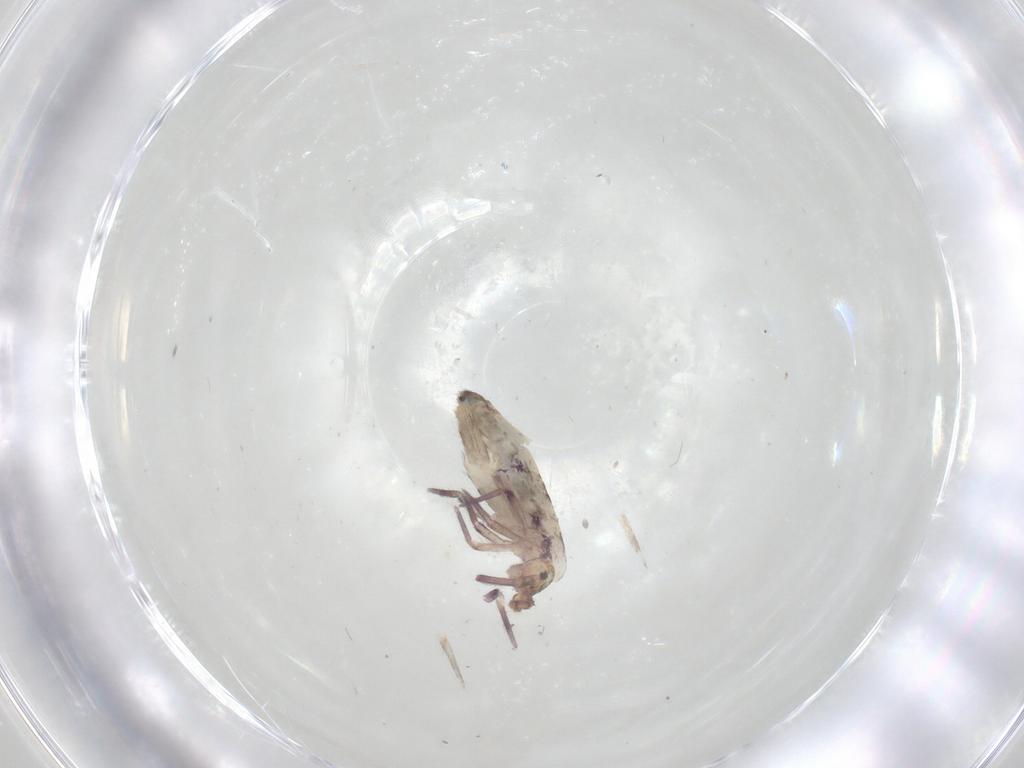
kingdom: Animalia
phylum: Arthropoda
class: Collembola
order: Entomobryomorpha
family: Entomobryidae
